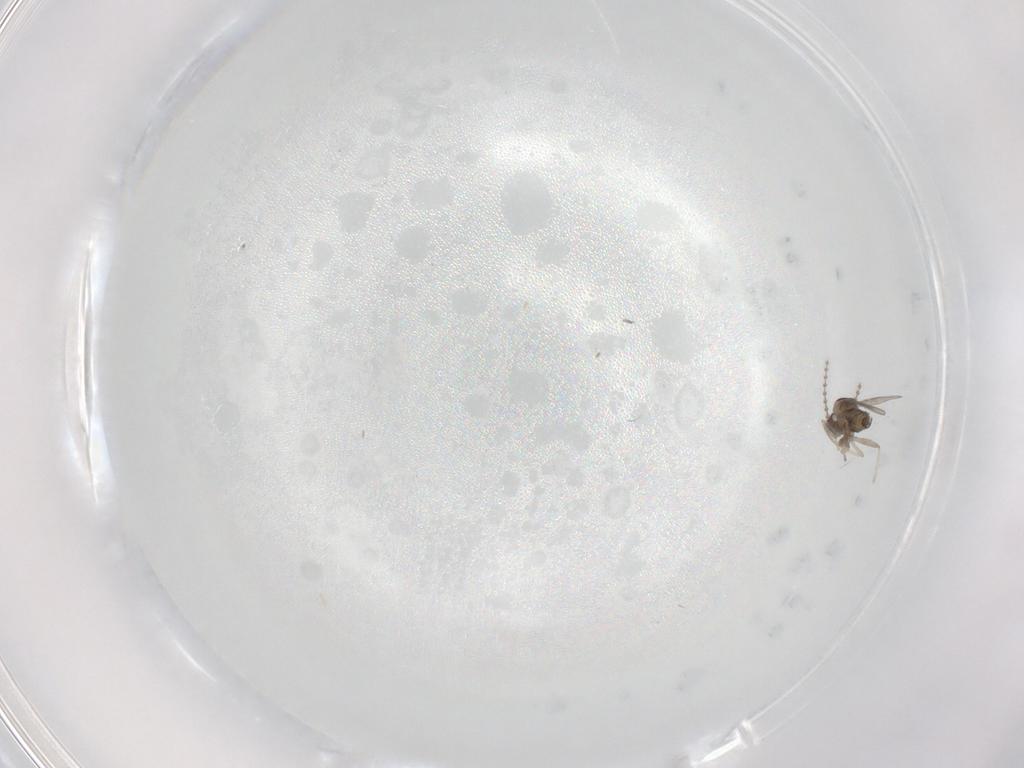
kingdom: Animalia
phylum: Arthropoda
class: Insecta
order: Diptera
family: Cecidomyiidae
